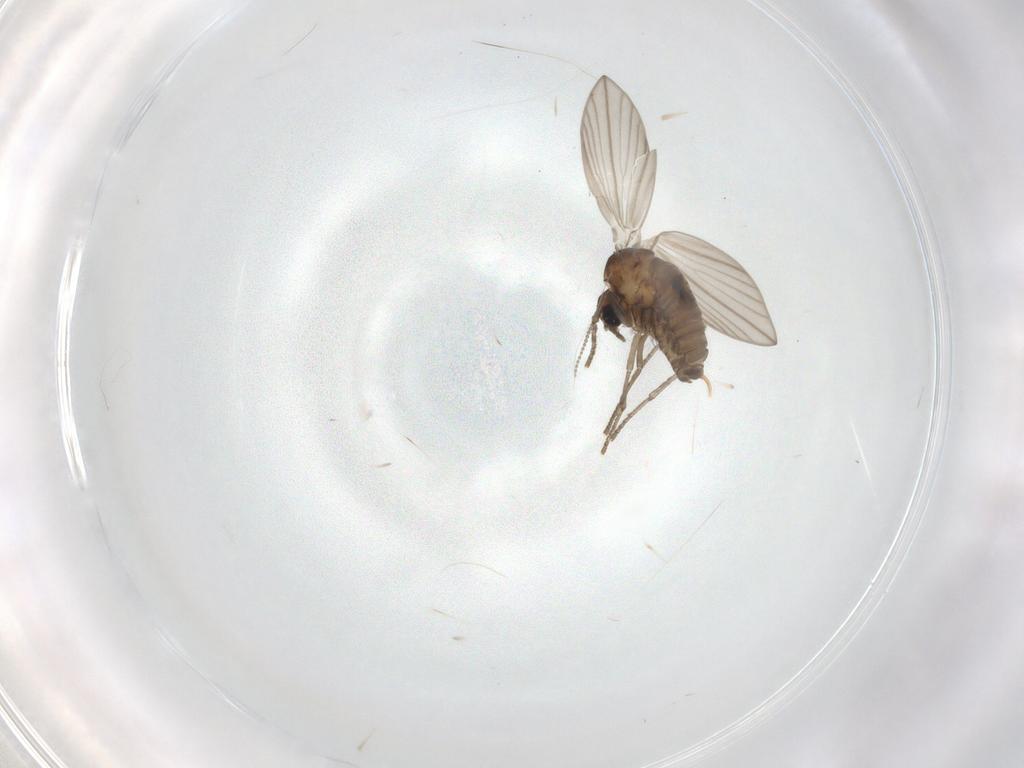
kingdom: Animalia
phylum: Arthropoda
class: Insecta
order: Diptera
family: Psychodidae
